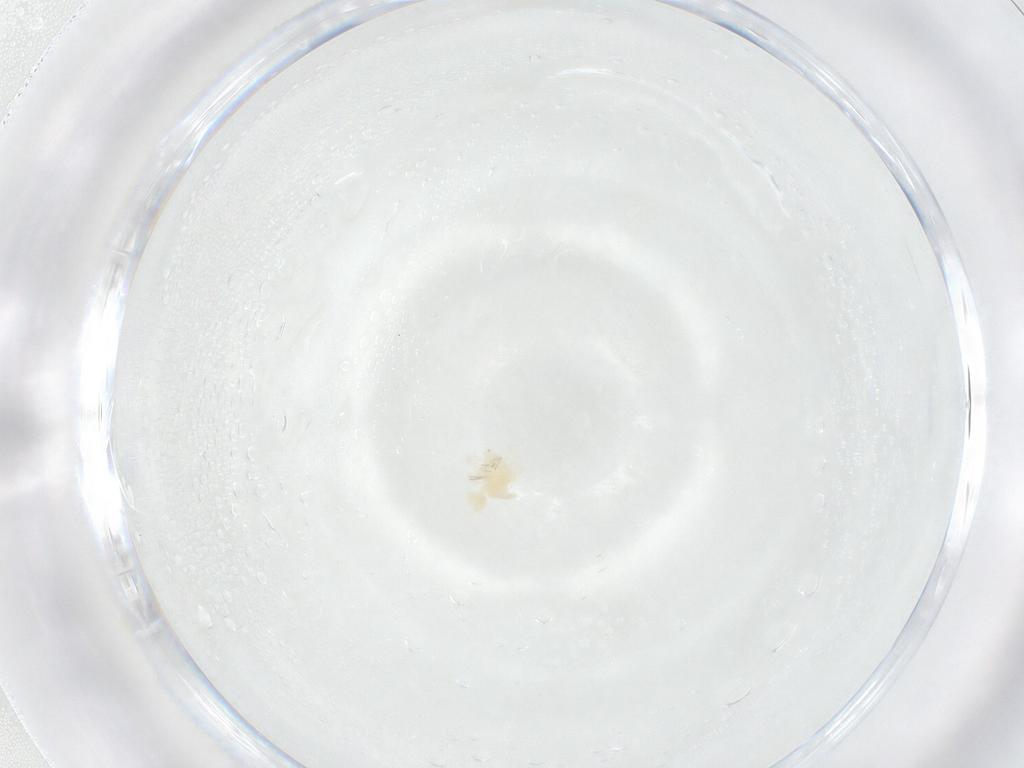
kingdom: Animalia
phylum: Arthropoda
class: Arachnida
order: Trombidiformes
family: Anystidae
